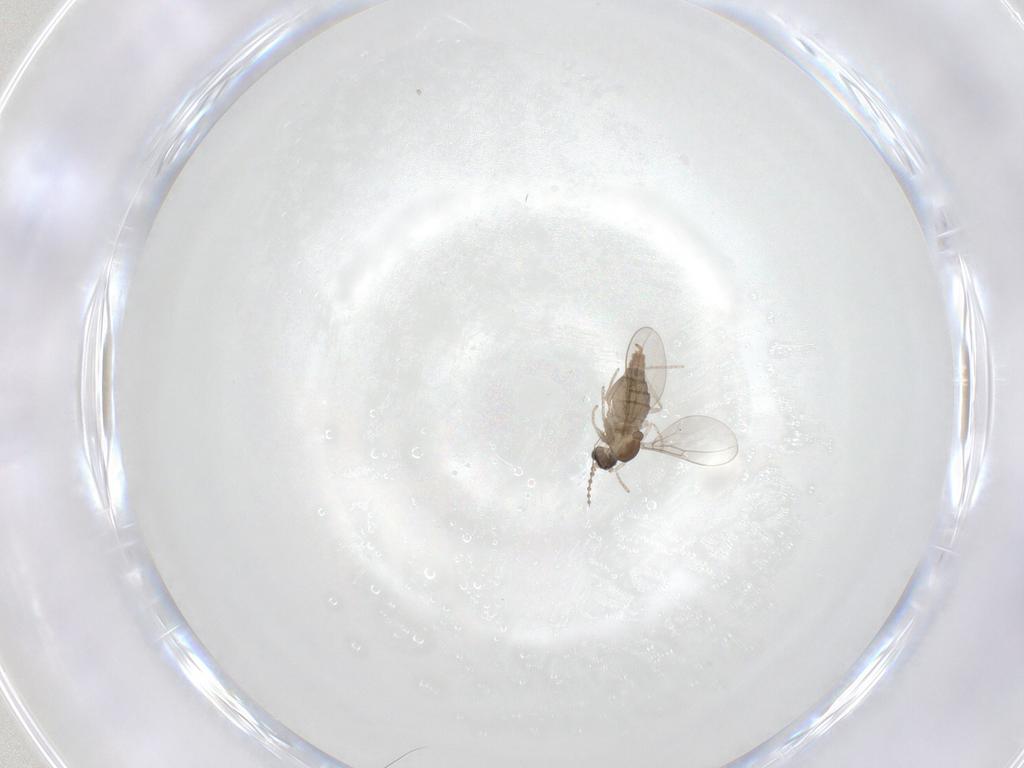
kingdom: Animalia
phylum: Arthropoda
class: Insecta
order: Diptera
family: Cecidomyiidae
